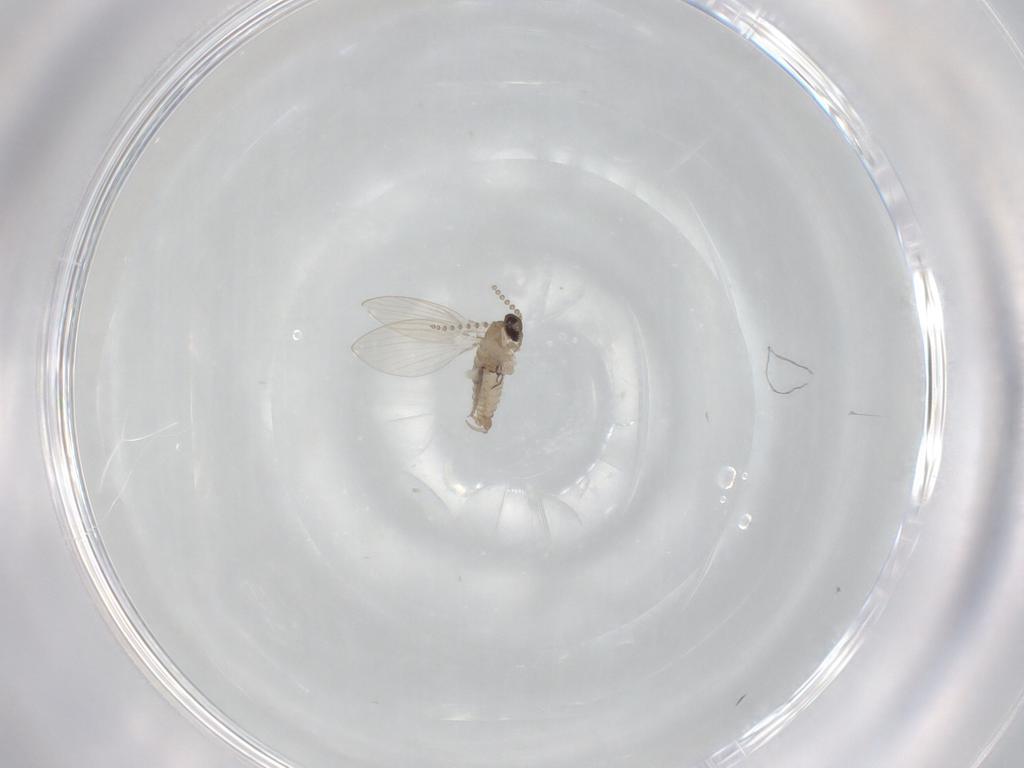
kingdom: Animalia
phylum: Arthropoda
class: Insecta
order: Diptera
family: Psychodidae
